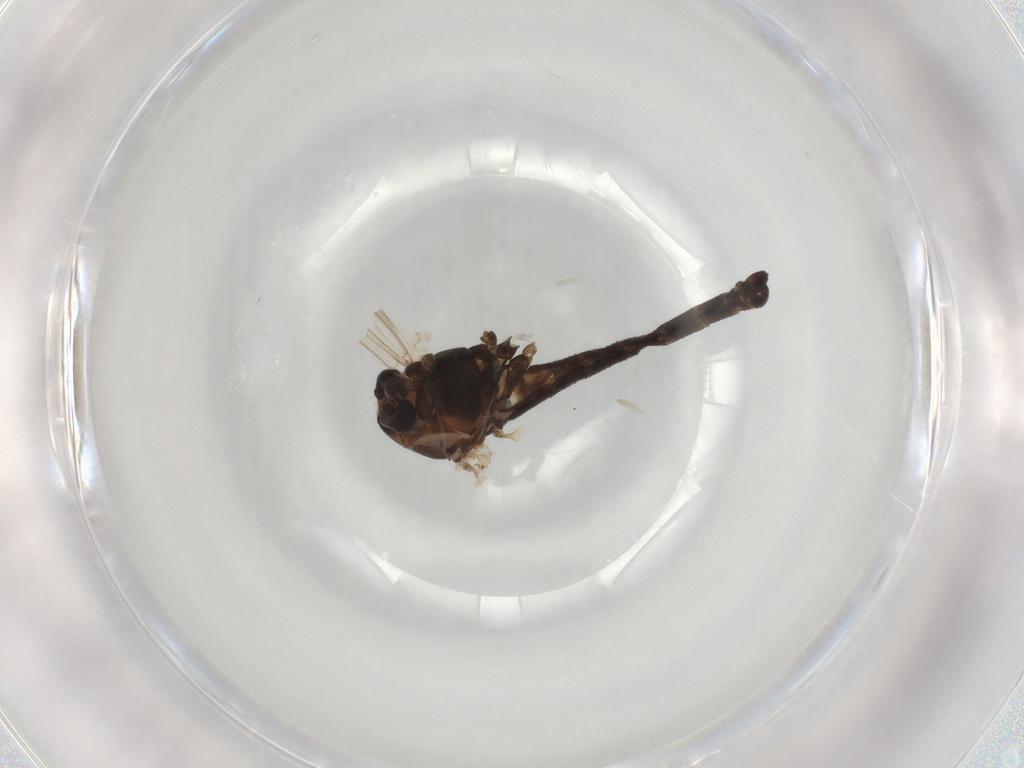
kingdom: Animalia
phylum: Arthropoda
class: Insecta
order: Diptera
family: Chironomidae
